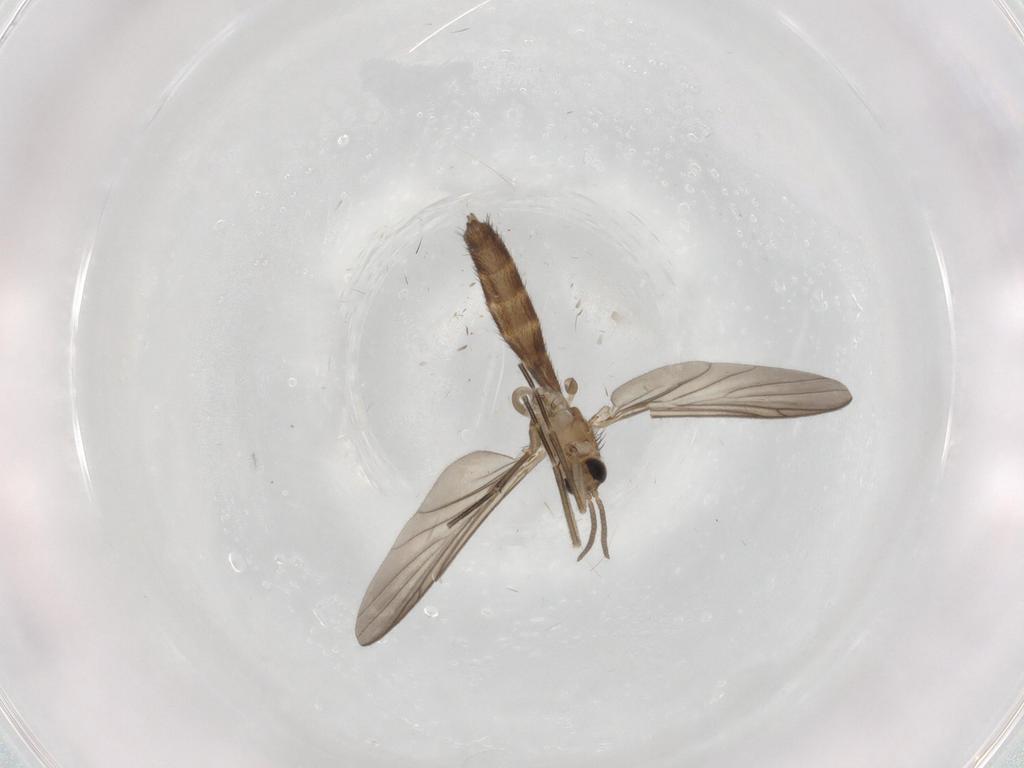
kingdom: Animalia
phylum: Arthropoda
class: Insecta
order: Diptera
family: Keroplatidae
